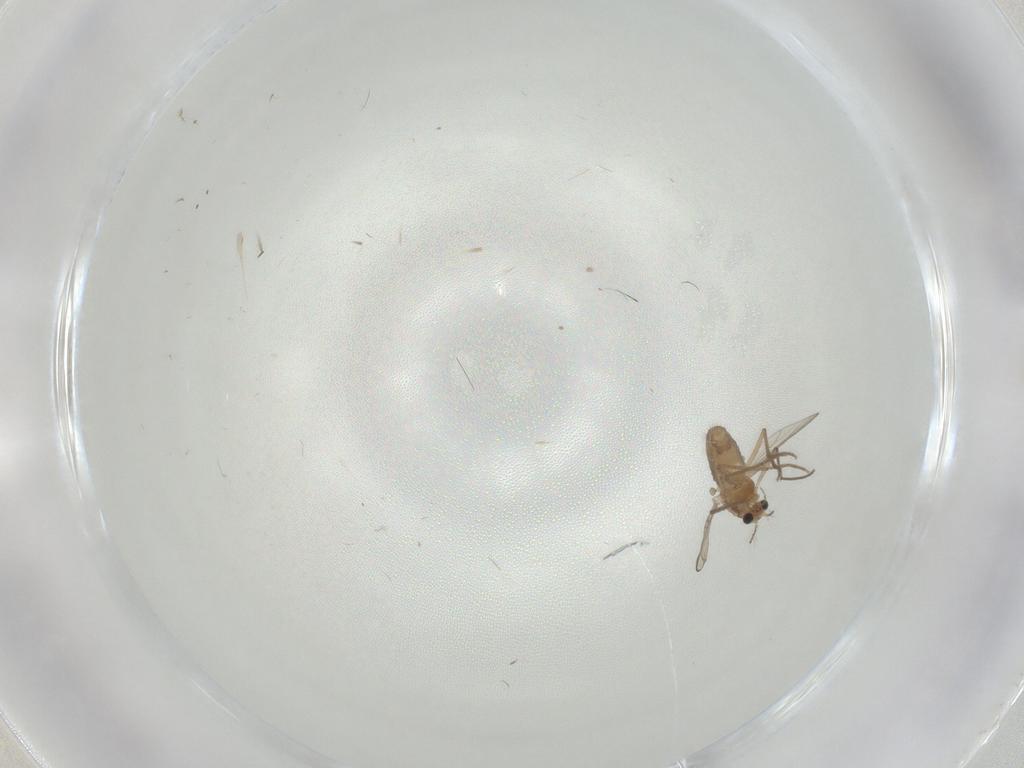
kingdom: Animalia
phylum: Arthropoda
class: Insecta
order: Diptera
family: Chironomidae
